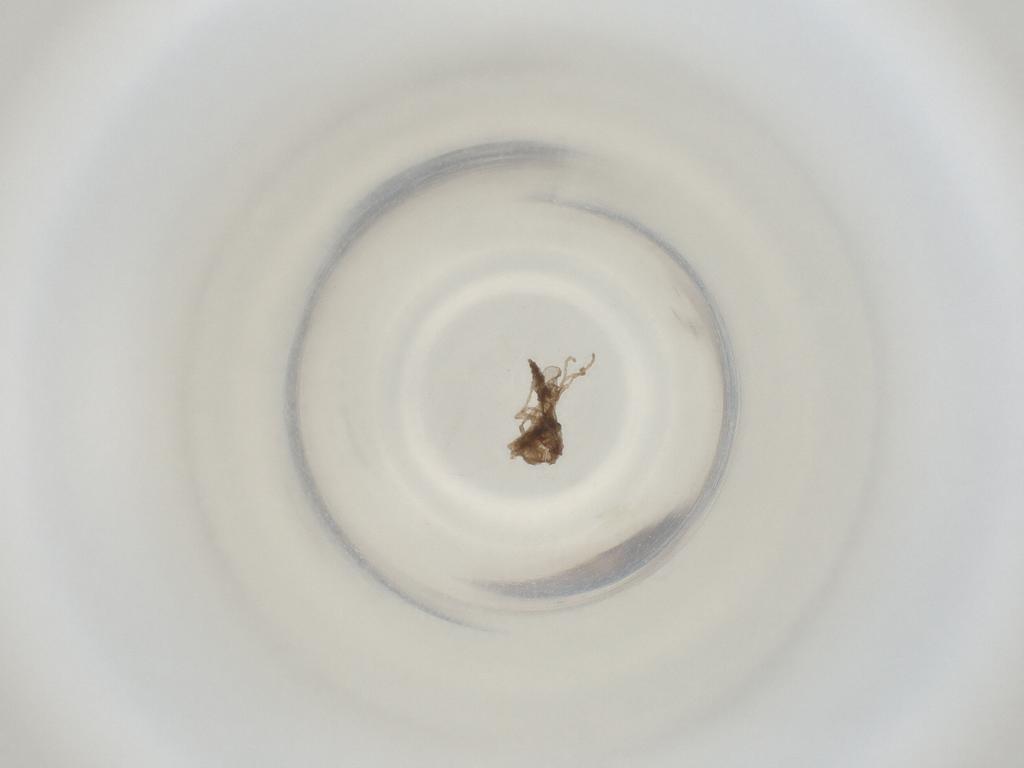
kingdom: Animalia
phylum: Arthropoda
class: Insecta
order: Diptera
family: Cecidomyiidae
